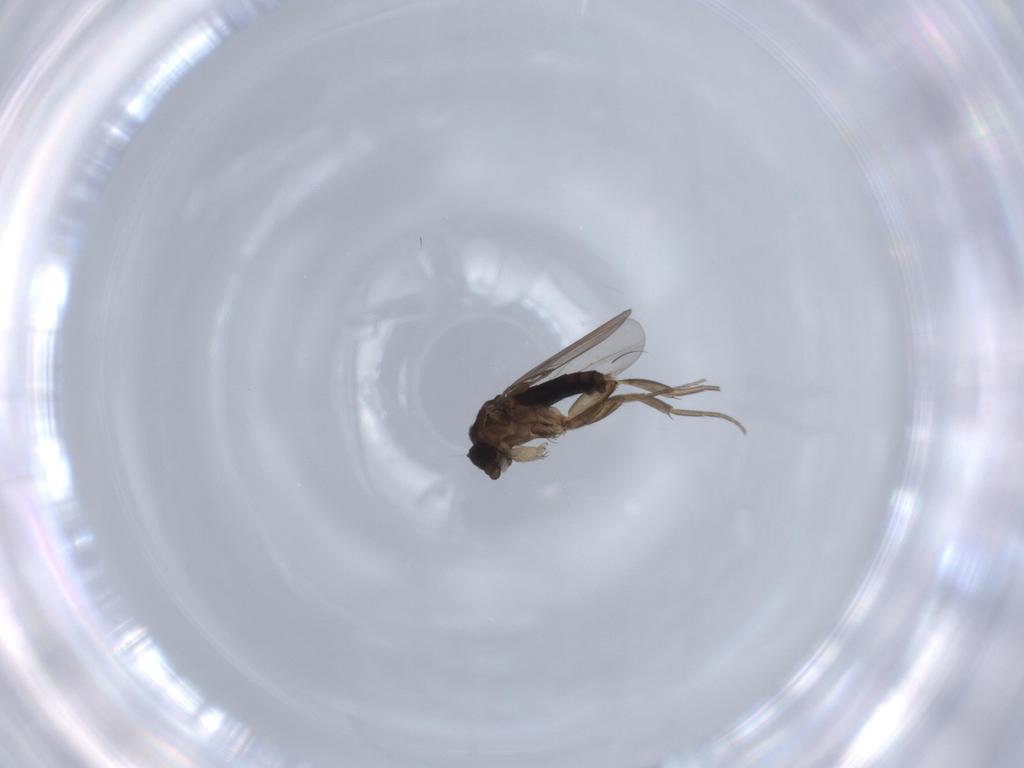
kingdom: Animalia
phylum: Arthropoda
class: Insecta
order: Diptera
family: Phoridae
